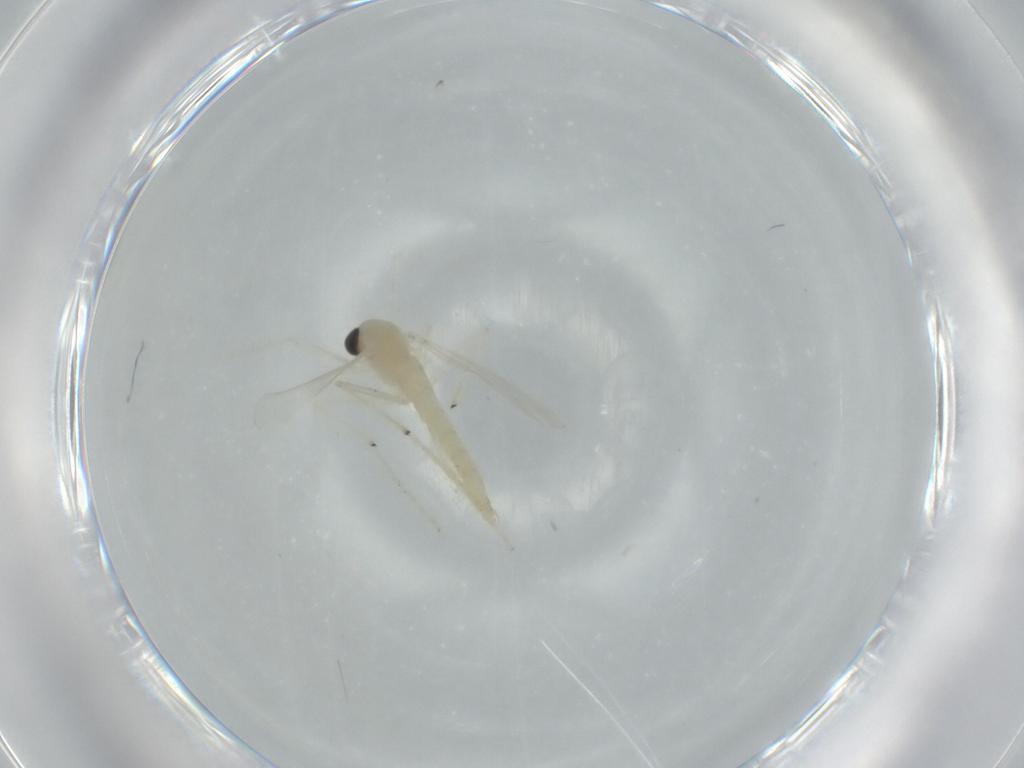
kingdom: Animalia
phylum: Arthropoda
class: Insecta
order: Diptera
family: Chironomidae
